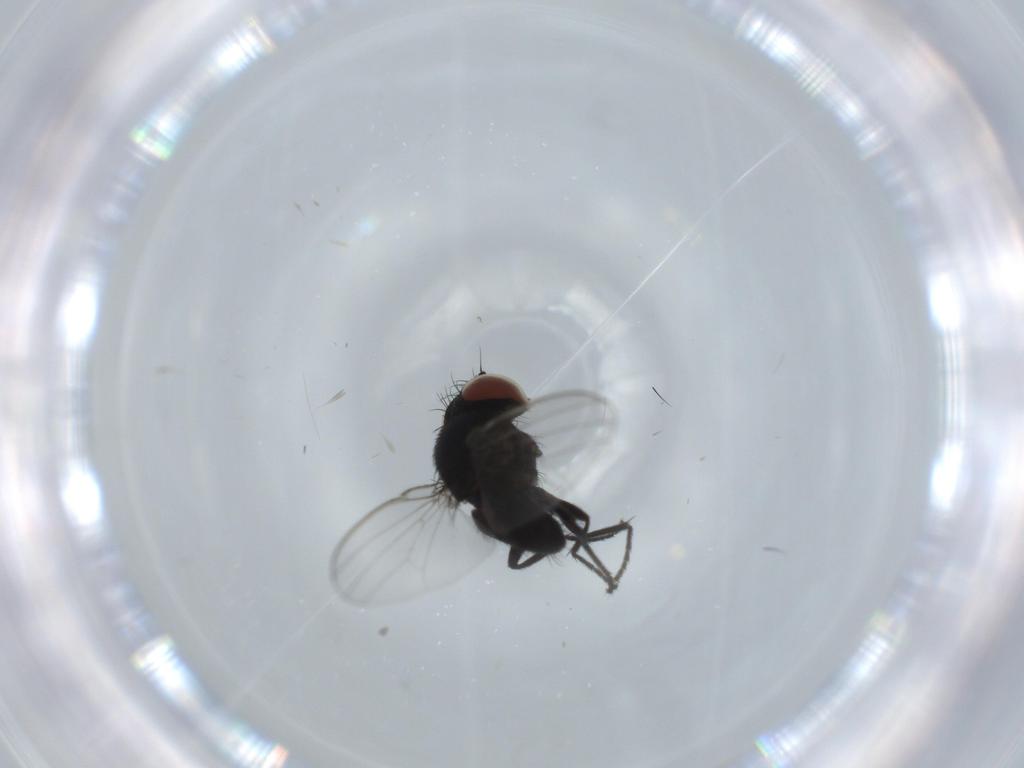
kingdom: Animalia
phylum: Arthropoda
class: Insecta
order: Diptera
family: Milichiidae
